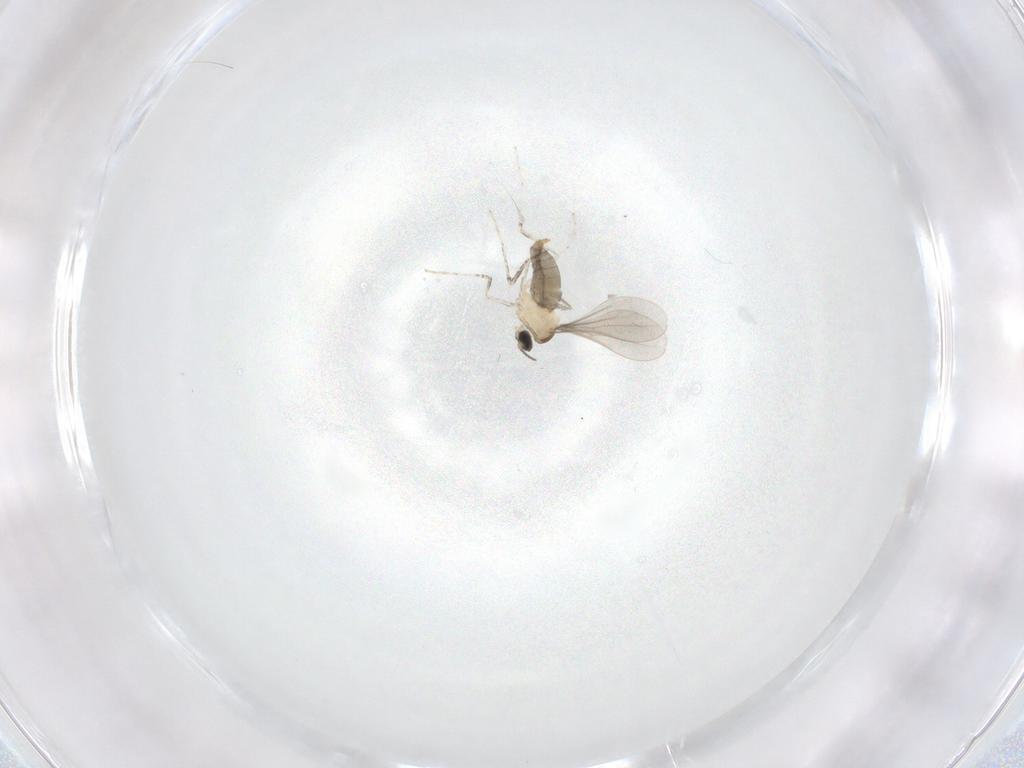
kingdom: Animalia
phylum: Arthropoda
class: Insecta
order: Diptera
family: Cecidomyiidae
